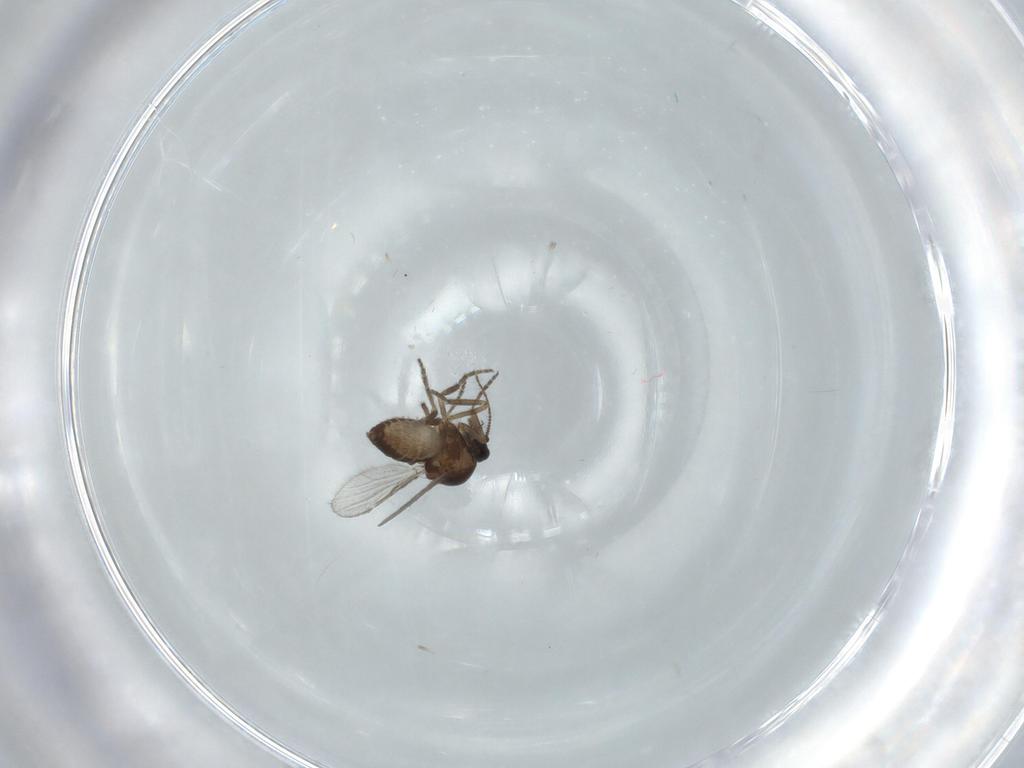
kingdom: Animalia
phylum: Arthropoda
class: Insecta
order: Diptera
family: Ceratopogonidae
